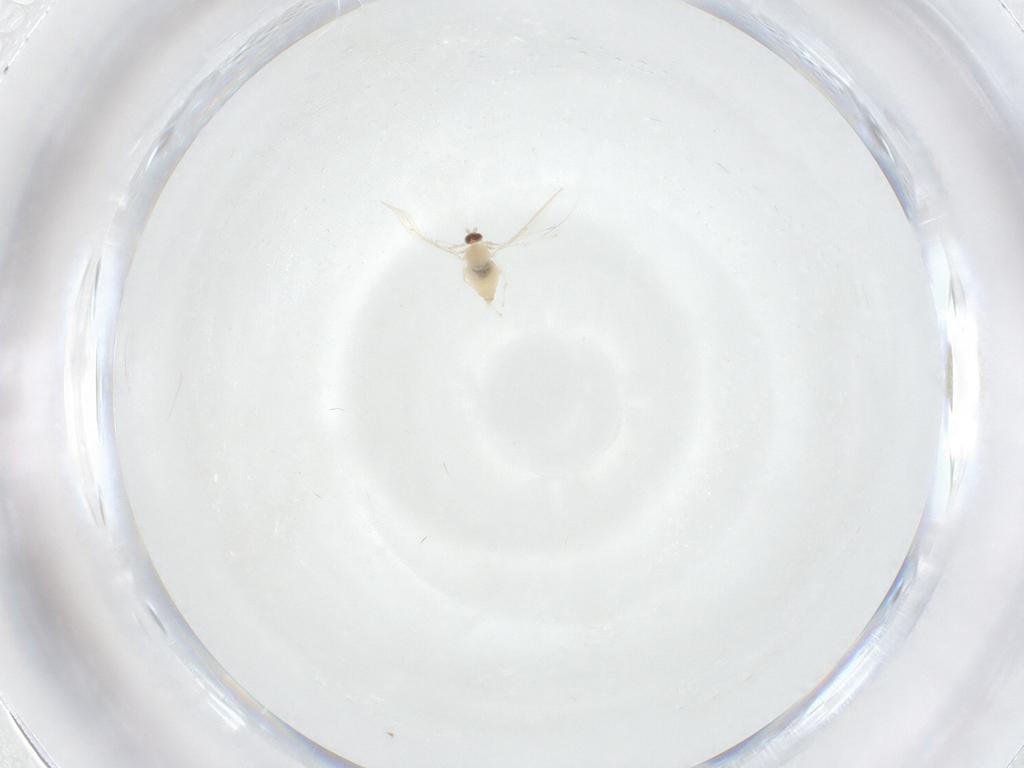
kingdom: Animalia
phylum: Arthropoda
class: Insecta
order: Diptera
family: Cecidomyiidae
